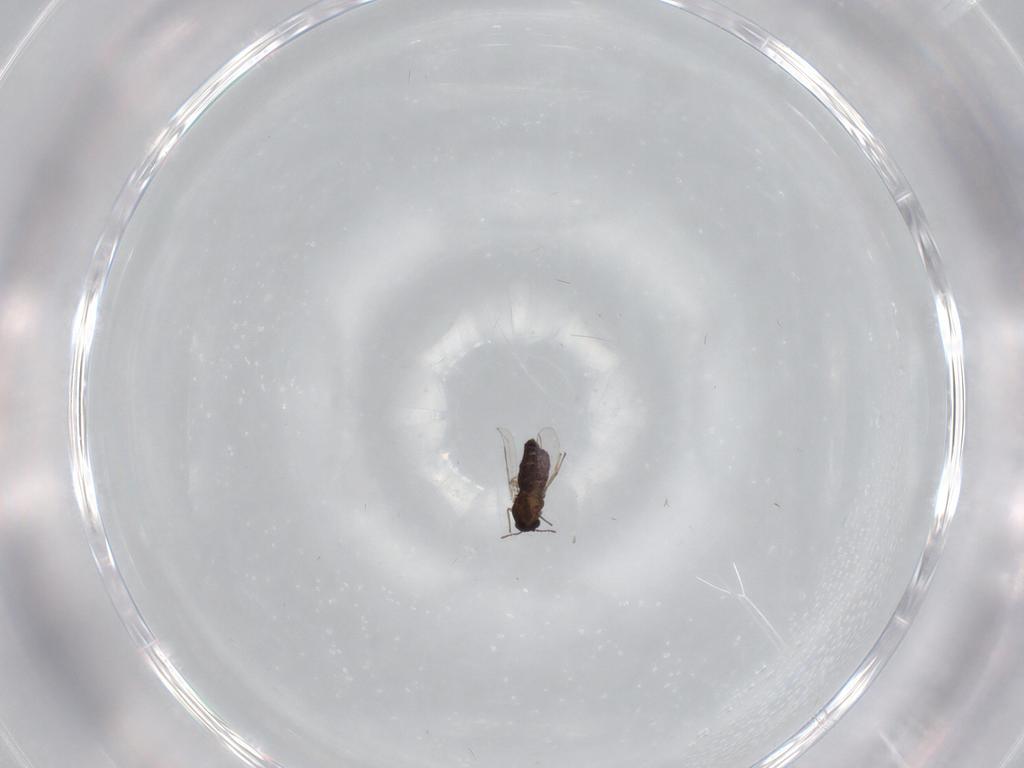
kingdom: Animalia
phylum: Arthropoda
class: Insecta
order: Diptera
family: Chironomidae
